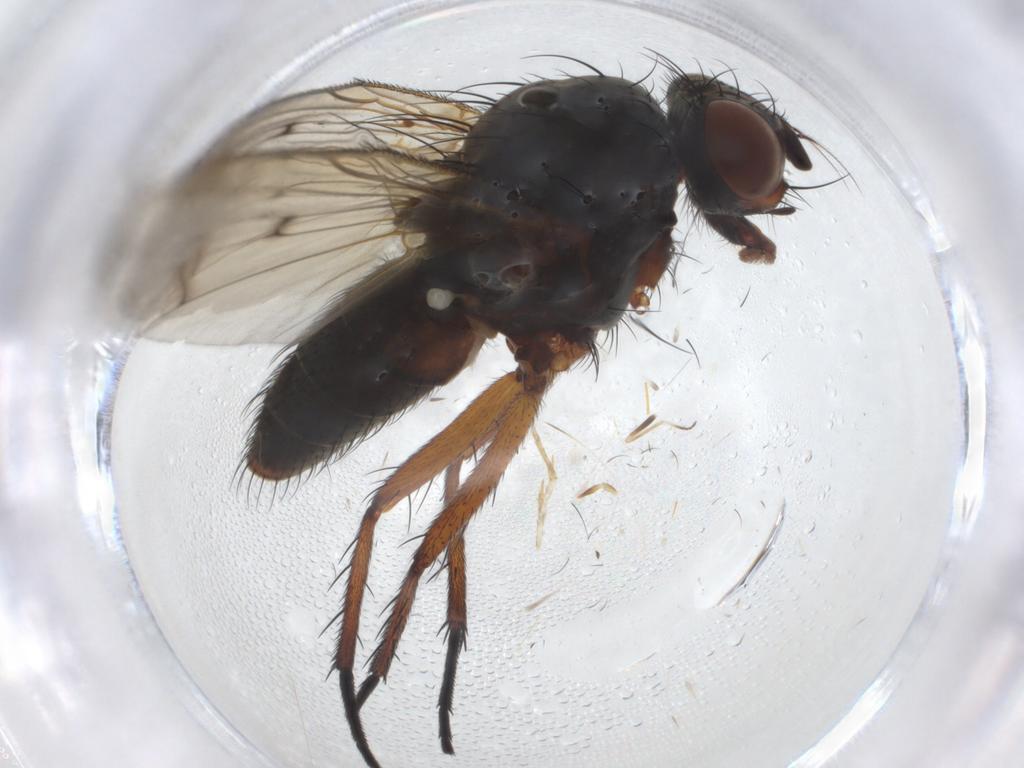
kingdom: Animalia
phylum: Arthropoda
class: Insecta
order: Diptera
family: Anthomyiidae
